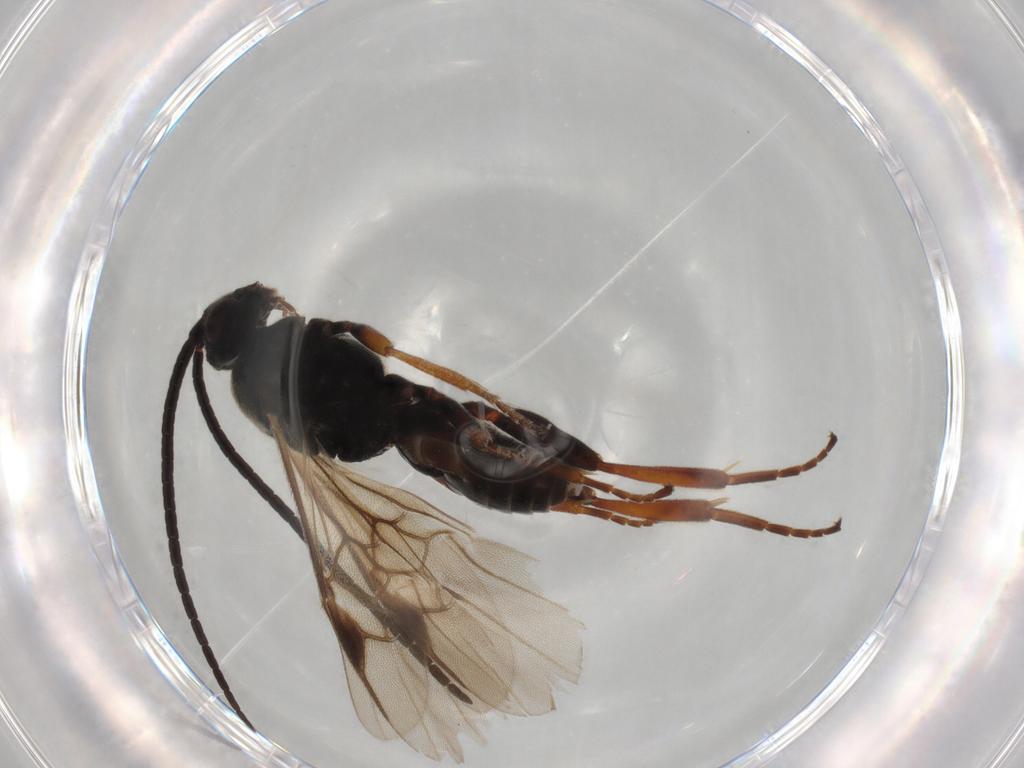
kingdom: Animalia
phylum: Arthropoda
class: Insecta
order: Hymenoptera
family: Braconidae
